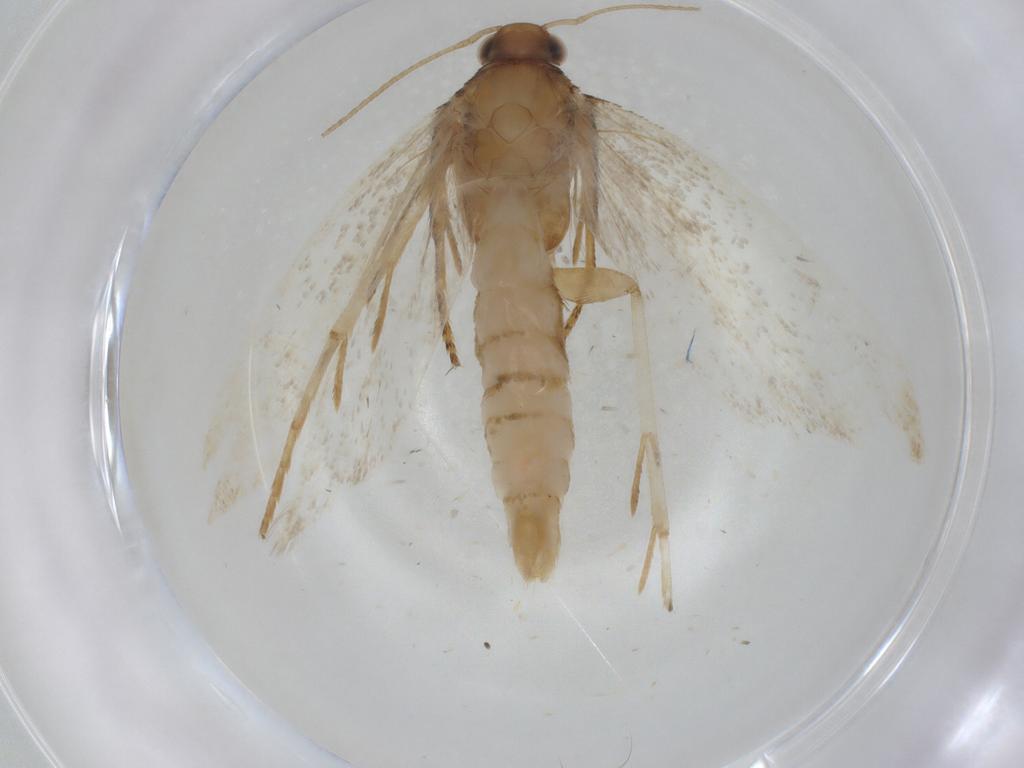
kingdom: Animalia
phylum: Arthropoda
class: Insecta
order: Lepidoptera
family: Gelechiidae
